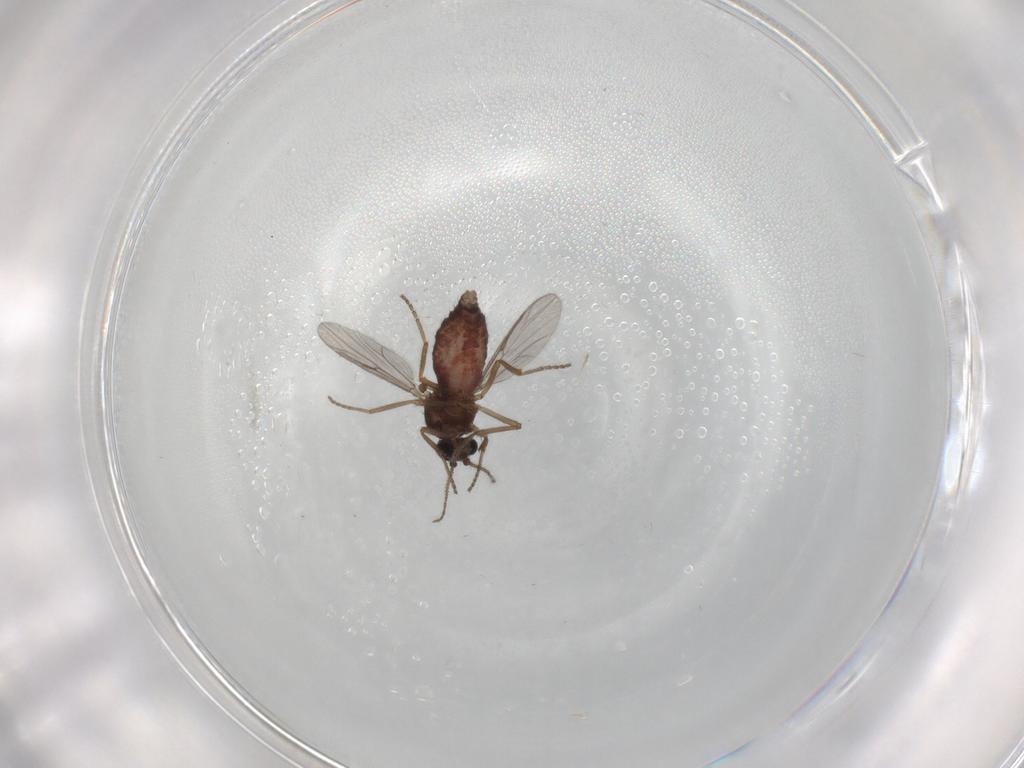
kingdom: Animalia
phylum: Arthropoda
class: Insecta
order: Diptera
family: Ceratopogonidae
